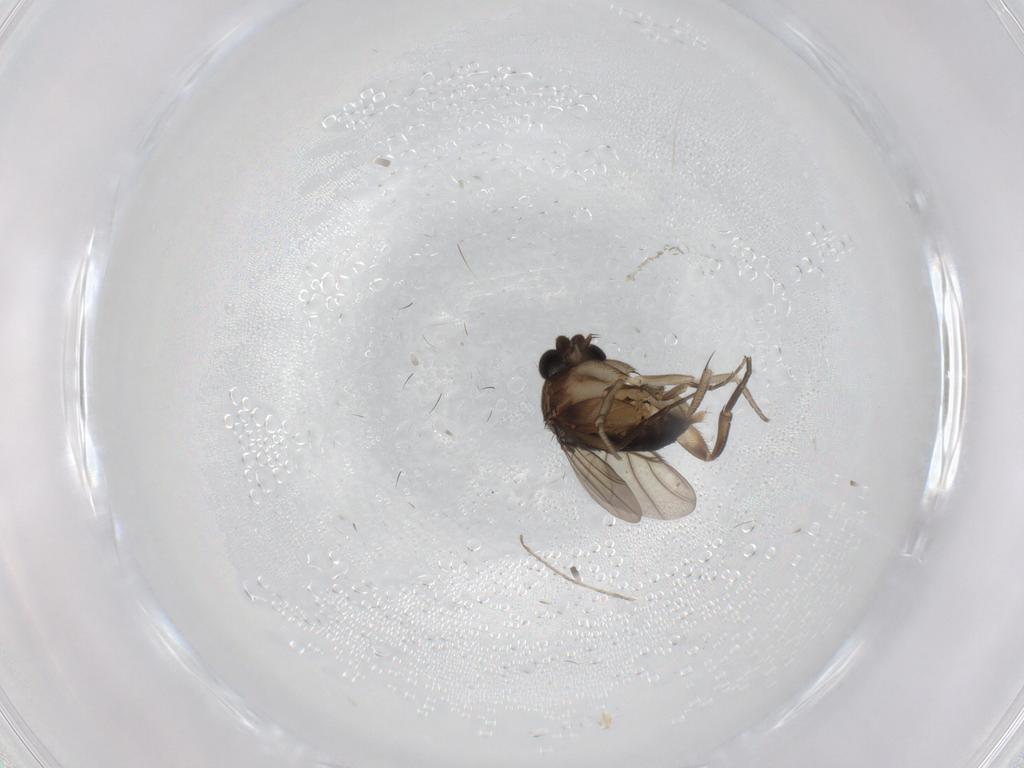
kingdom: Animalia
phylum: Arthropoda
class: Insecta
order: Diptera
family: Phoridae
